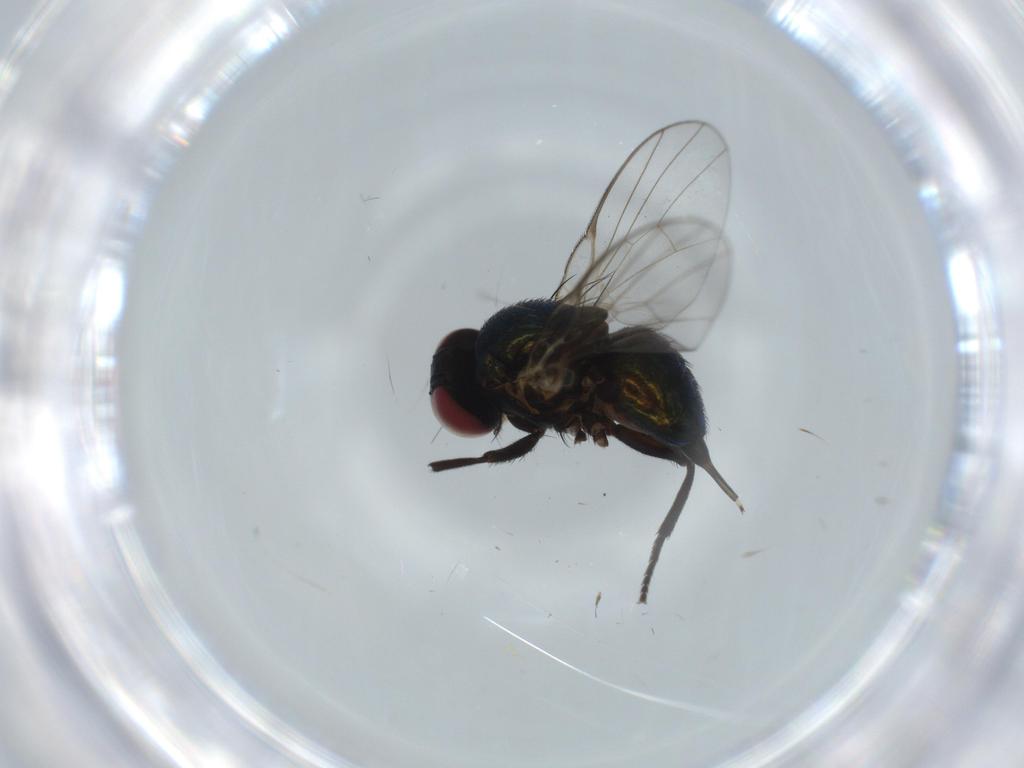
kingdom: Animalia
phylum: Arthropoda
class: Insecta
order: Diptera
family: Agromyzidae
